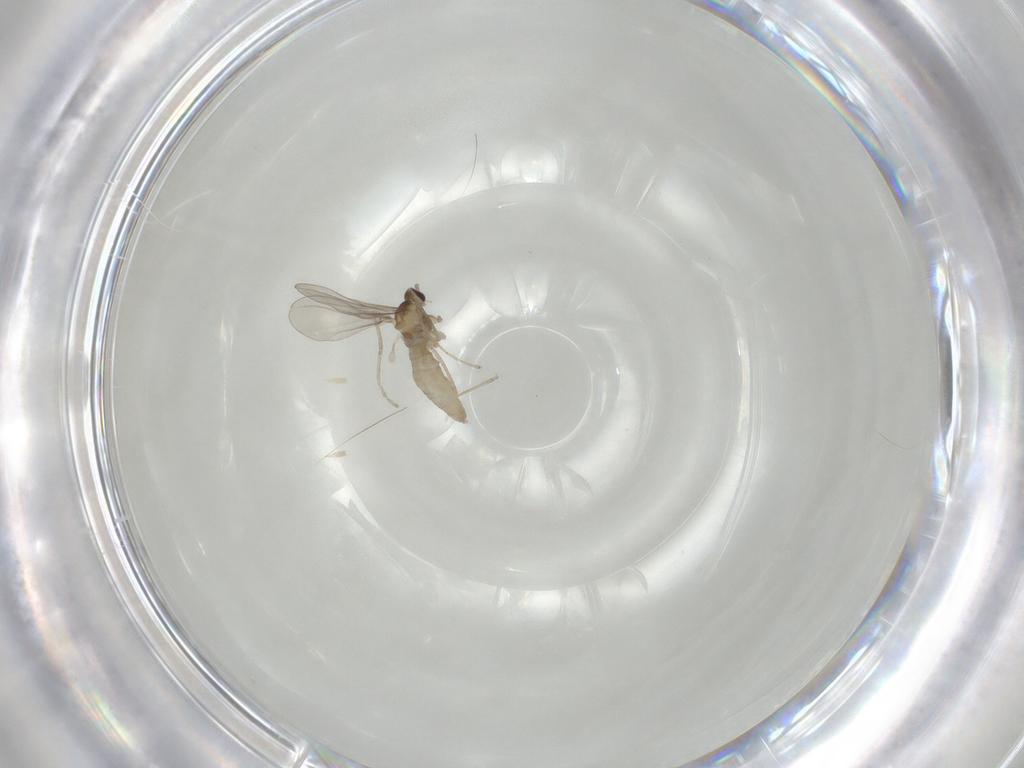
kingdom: Animalia
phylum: Arthropoda
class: Insecta
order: Diptera
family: Cecidomyiidae
